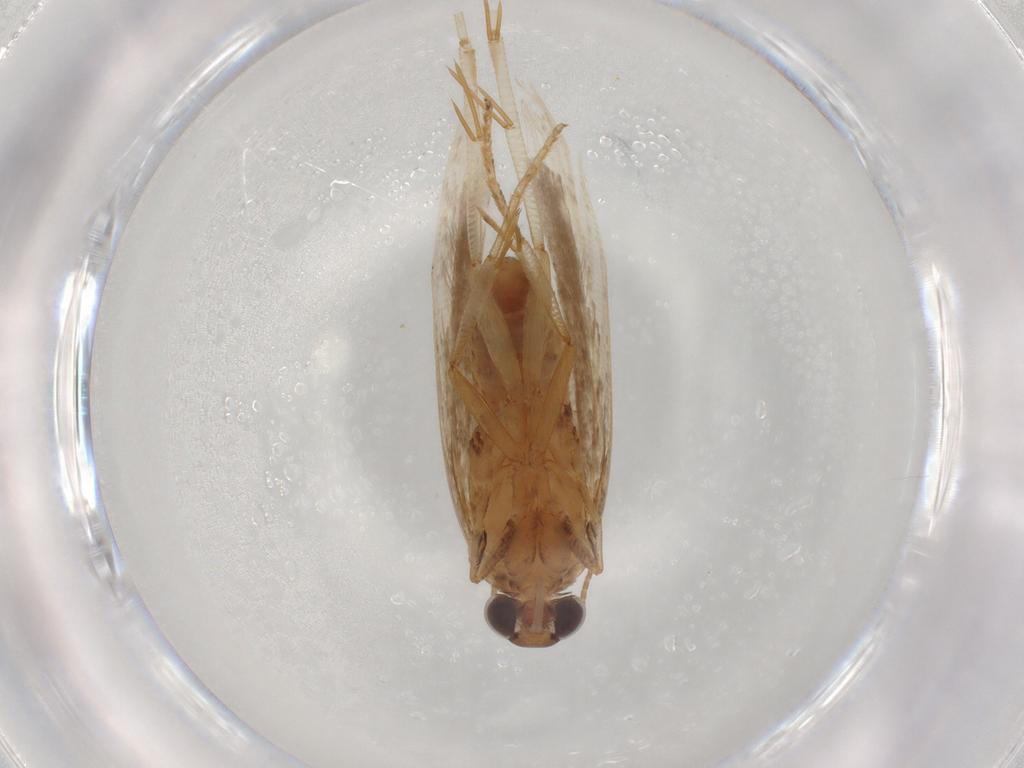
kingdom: Animalia
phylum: Arthropoda
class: Insecta
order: Lepidoptera
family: Gelechiidae
